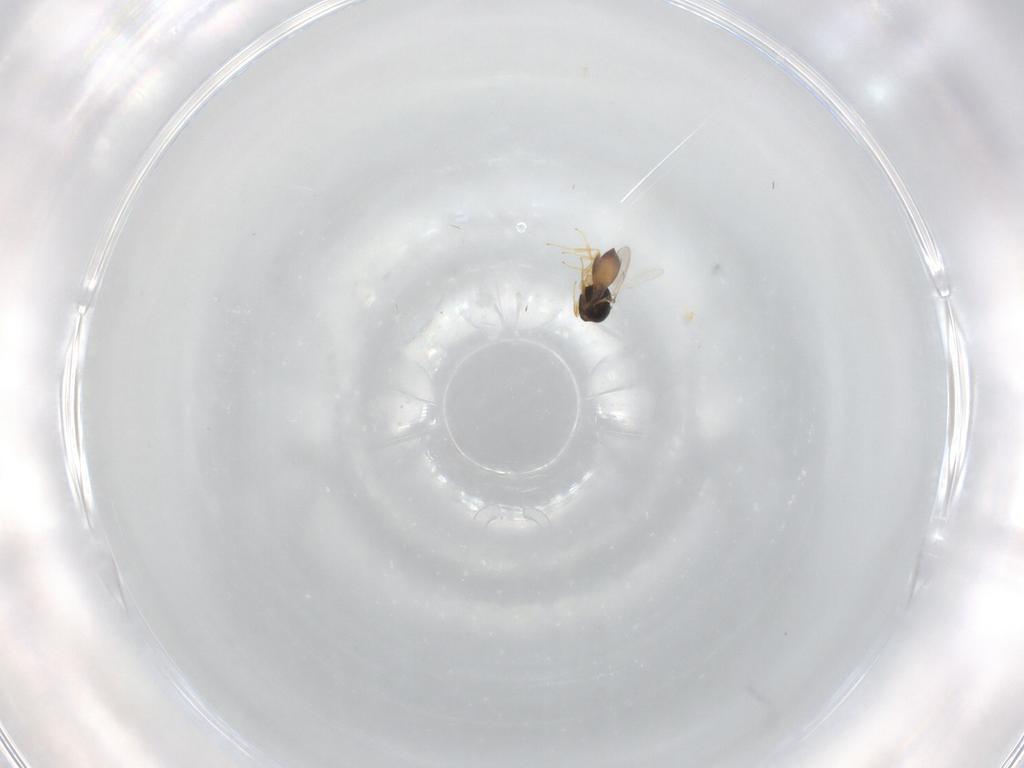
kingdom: Animalia
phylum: Arthropoda
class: Insecta
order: Hymenoptera
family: Scelionidae
